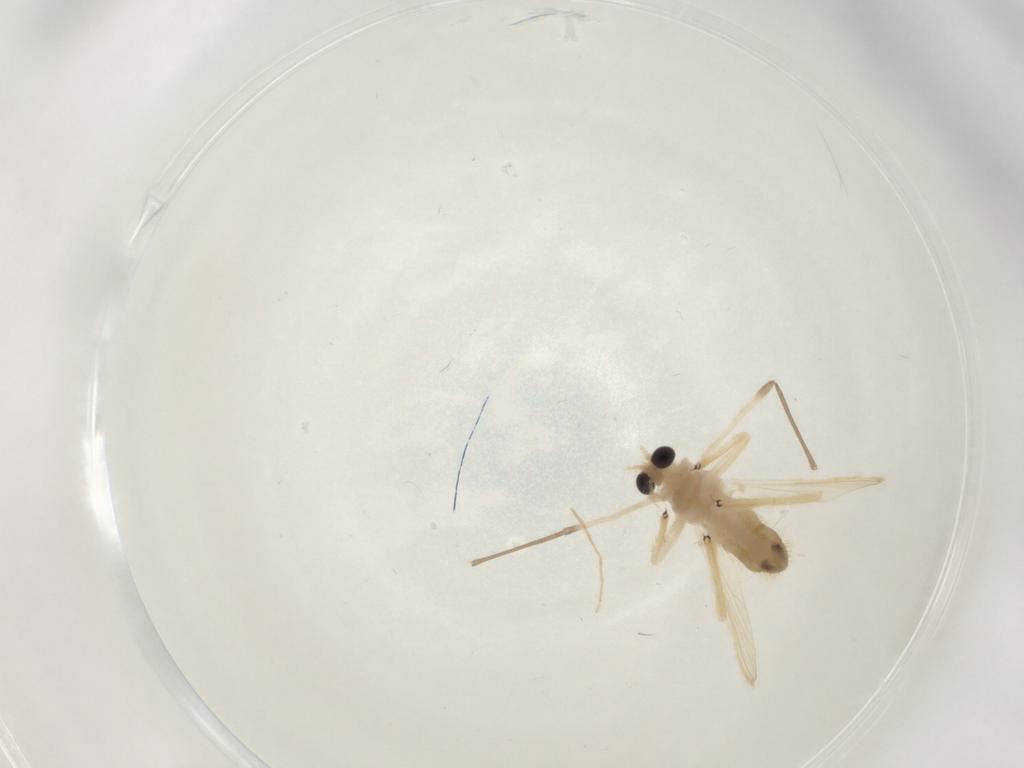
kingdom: Animalia
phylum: Arthropoda
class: Insecta
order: Diptera
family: Chironomidae
